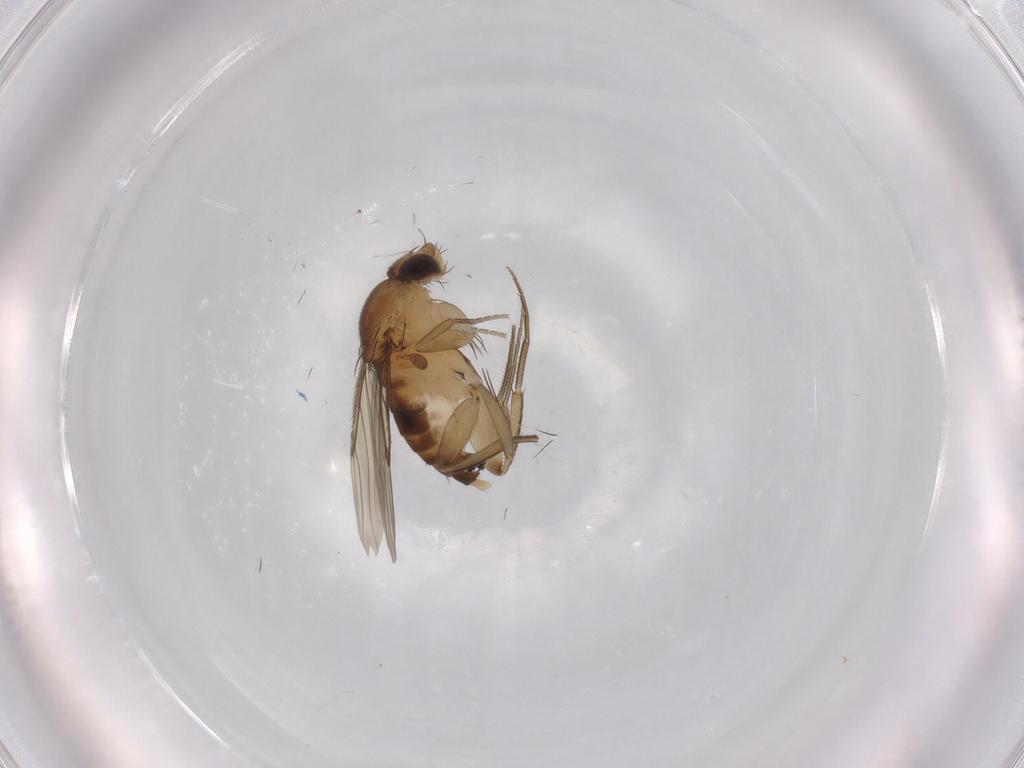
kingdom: Animalia
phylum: Arthropoda
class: Insecta
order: Diptera
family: Phoridae
